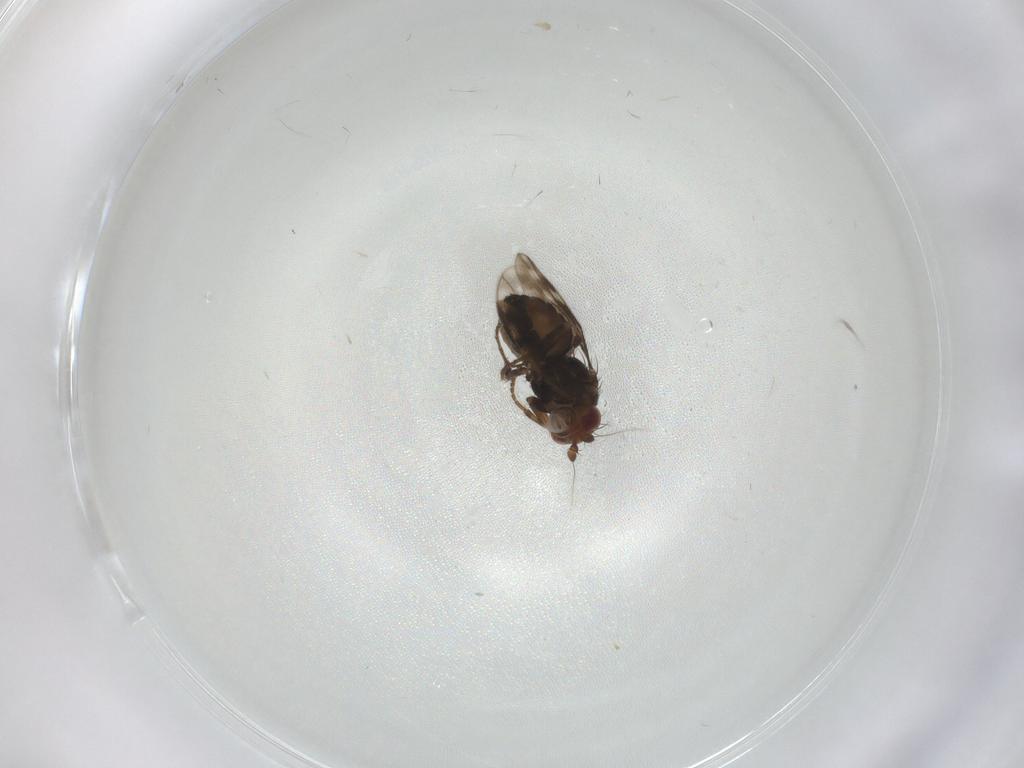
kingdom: Animalia
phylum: Arthropoda
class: Insecta
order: Diptera
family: Sphaeroceridae
